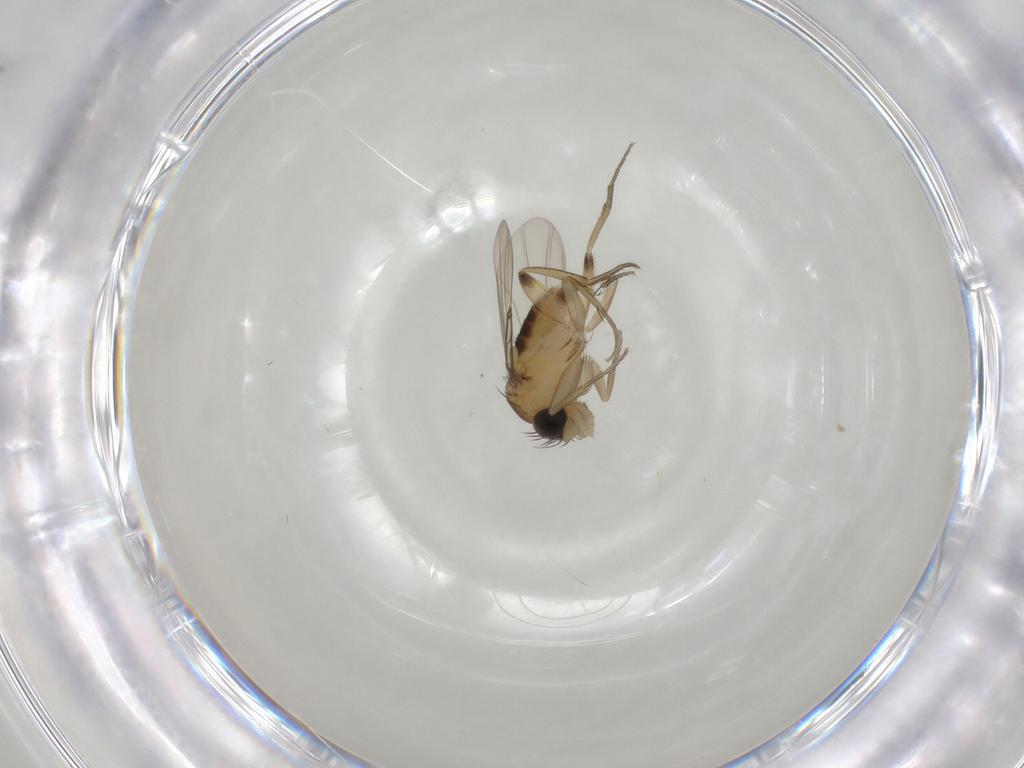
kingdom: Animalia
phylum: Arthropoda
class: Insecta
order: Diptera
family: Phoridae
